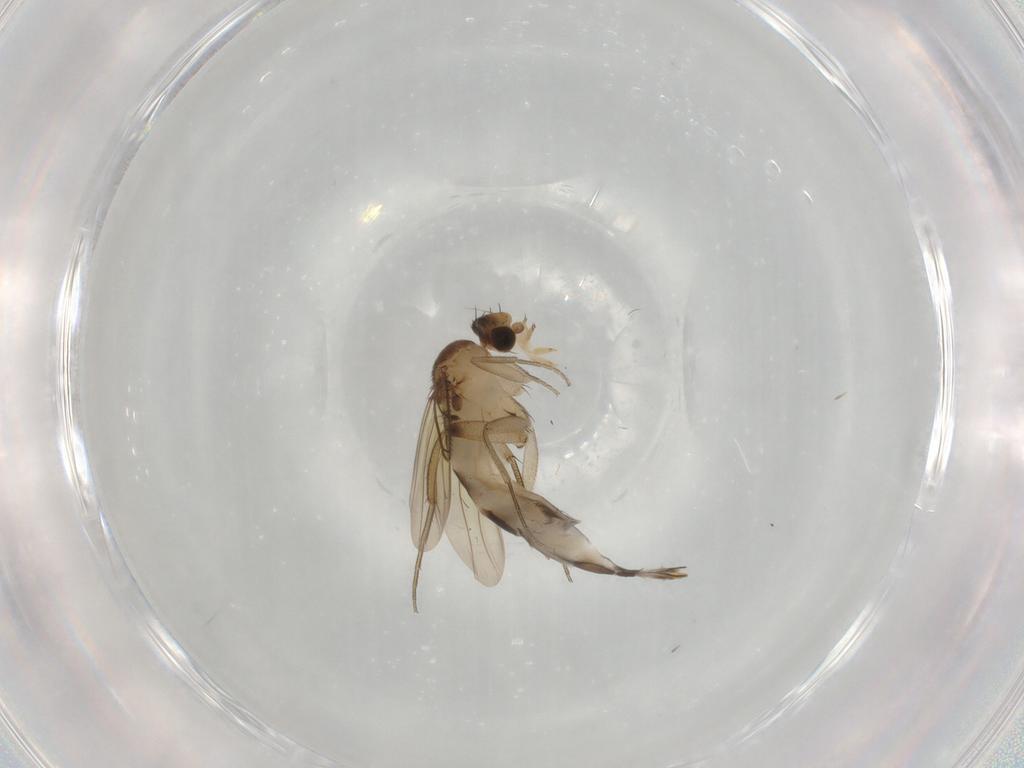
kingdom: Animalia
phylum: Arthropoda
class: Insecta
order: Diptera
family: Phoridae
